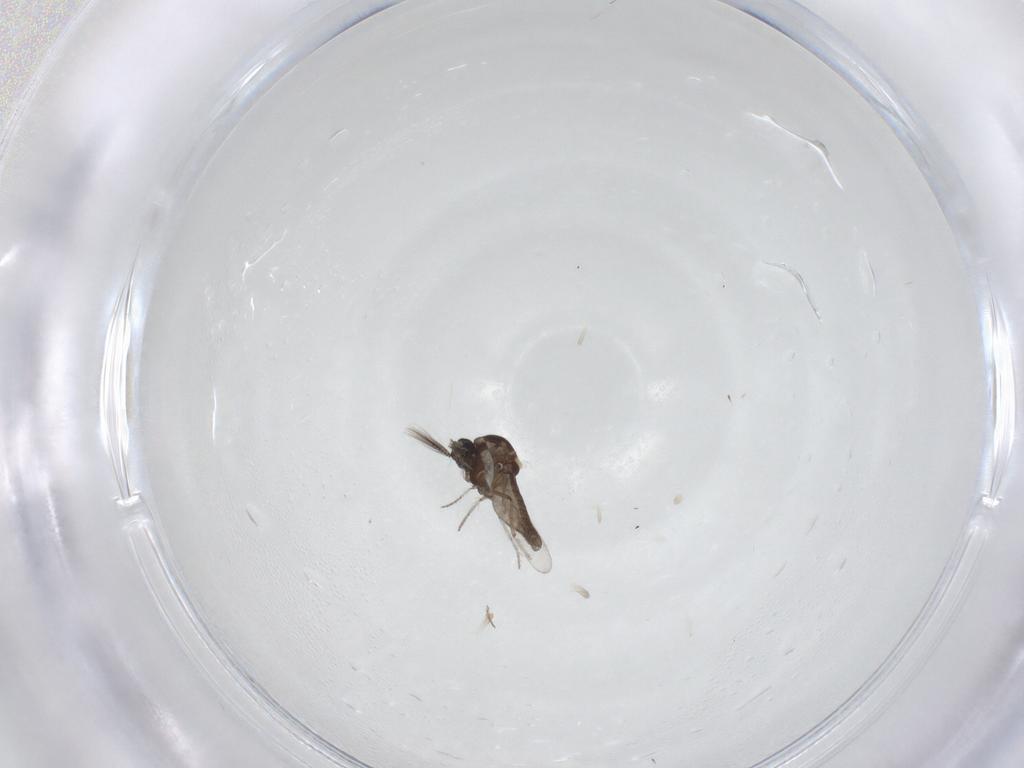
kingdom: Animalia
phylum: Arthropoda
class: Insecta
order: Diptera
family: Ceratopogonidae
